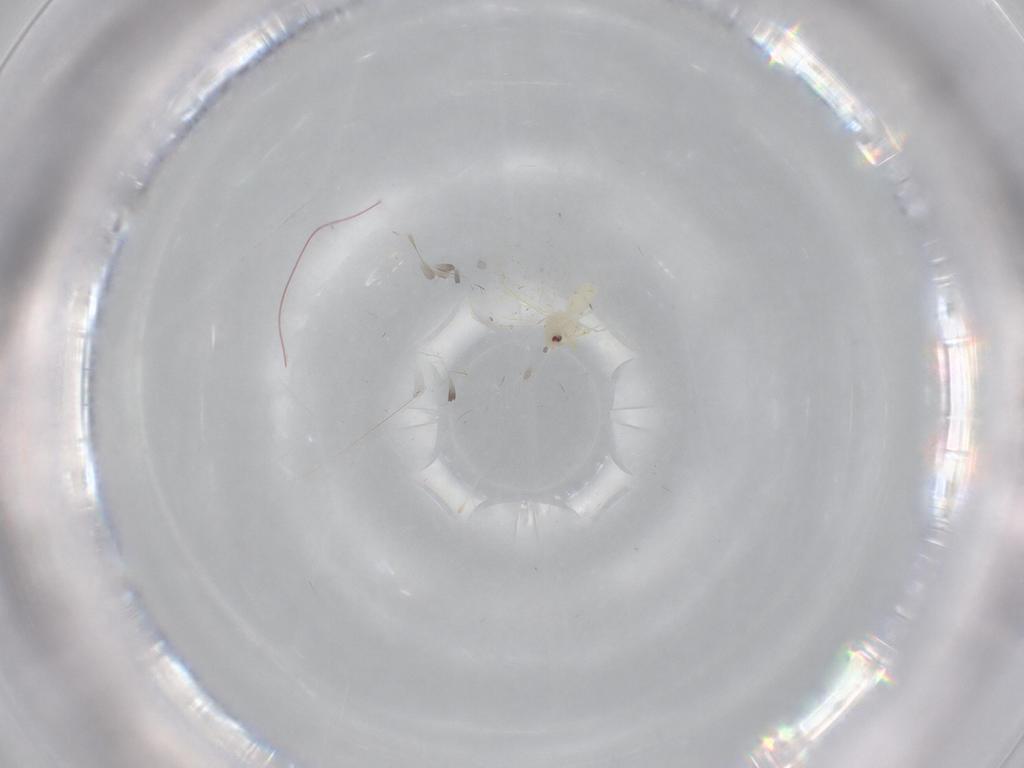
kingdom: Animalia
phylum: Arthropoda
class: Insecta
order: Hemiptera
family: Aleyrodidae
